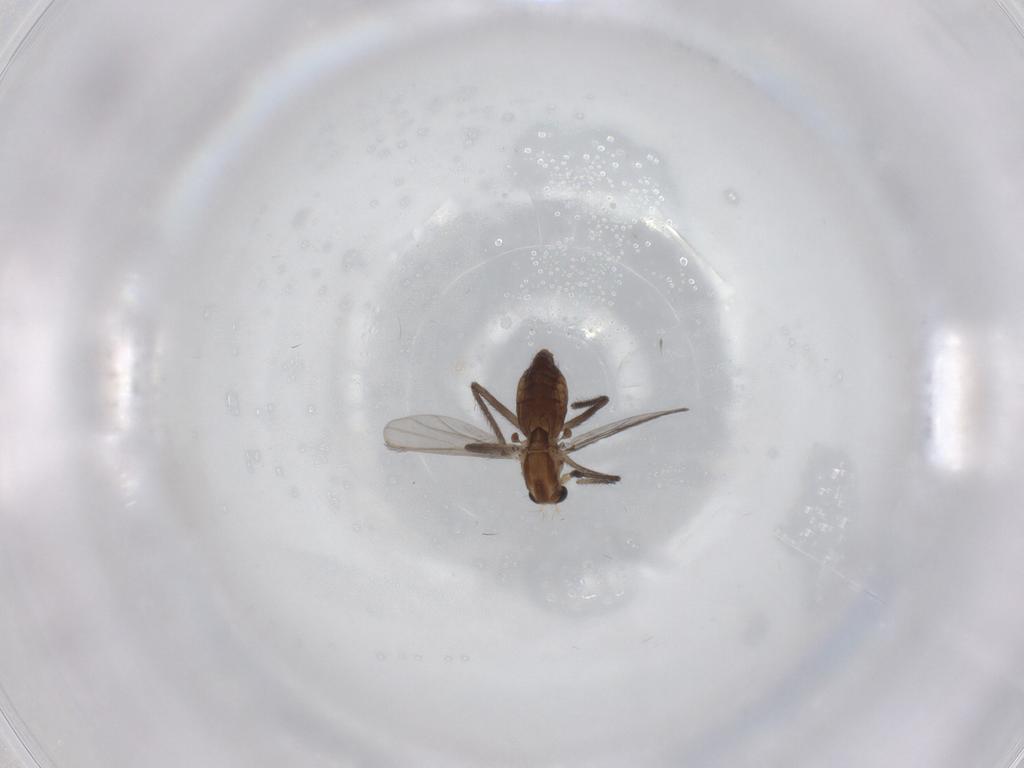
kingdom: Animalia
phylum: Arthropoda
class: Insecta
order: Diptera
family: Chironomidae
